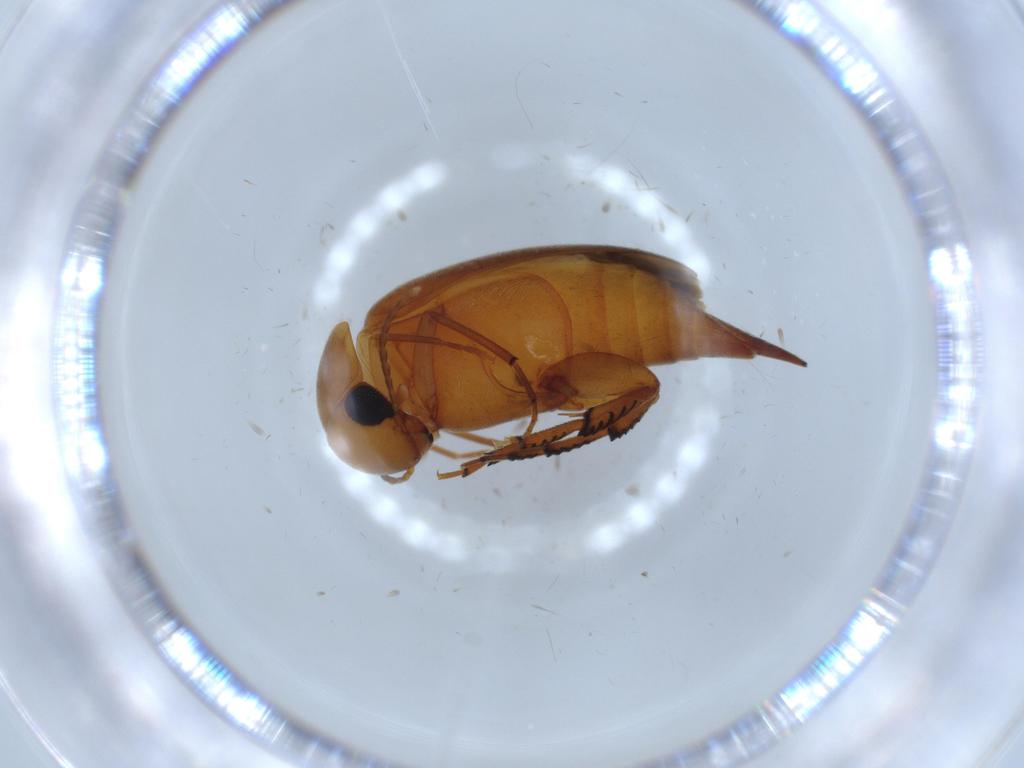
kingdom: Animalia
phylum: Arthropoda
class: Insecta
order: Coleoptera
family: Mordellidae
